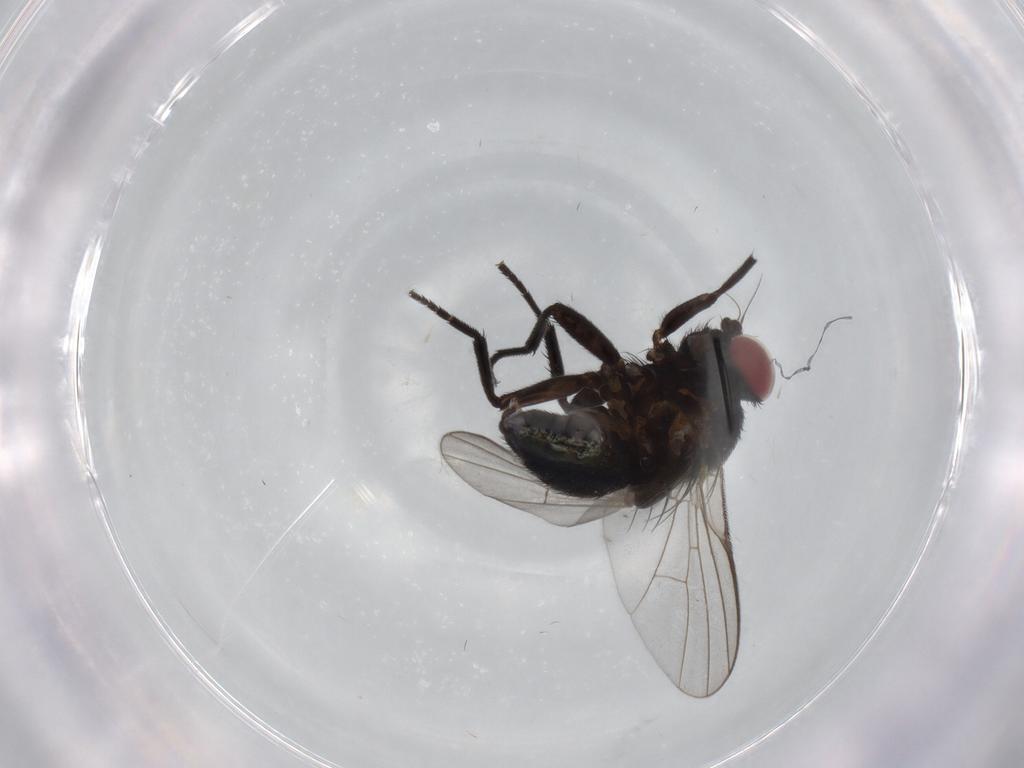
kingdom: Animalia
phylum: Arthropoda
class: Insecta
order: Diptera
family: Agromyzidae
